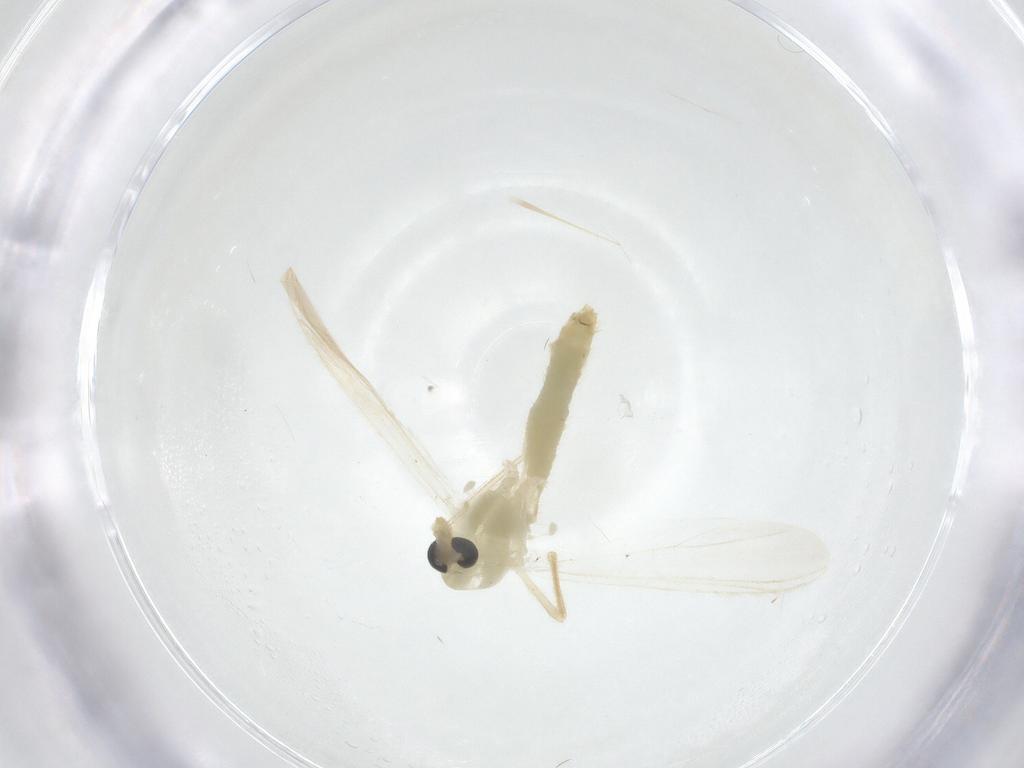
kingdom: Animalia
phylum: Arthropoda
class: Insecta
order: Diptera
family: Chironomidae
